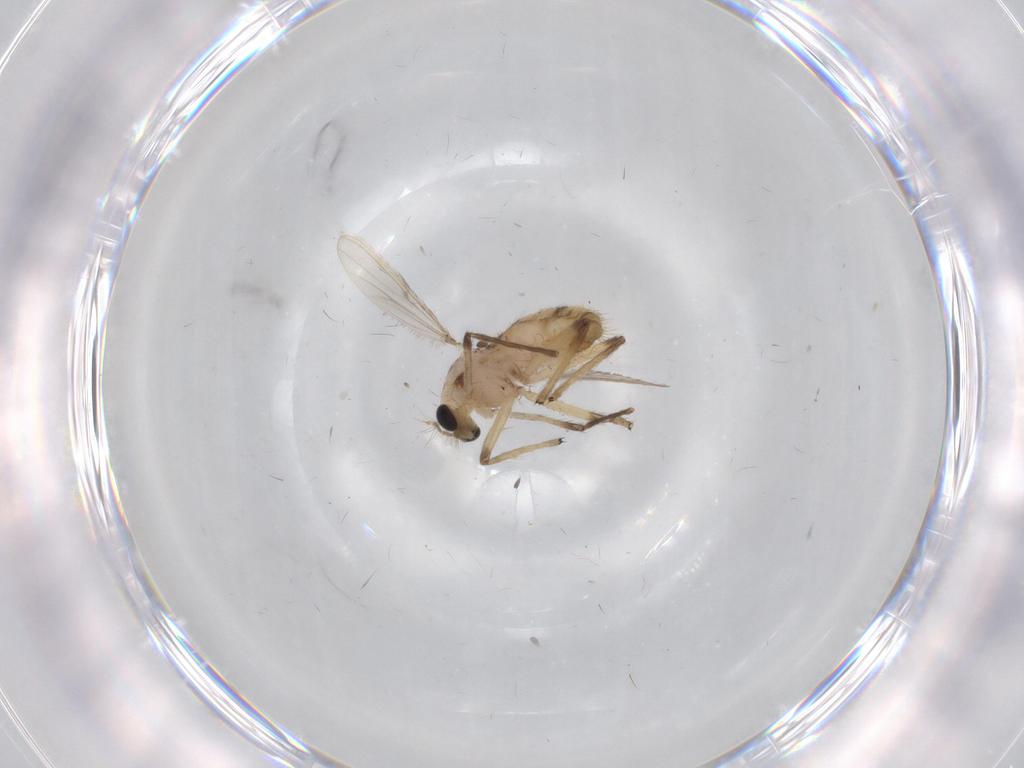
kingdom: Animalia
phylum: Arthropoda
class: Insecta
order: Diptera
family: Chironomidae
